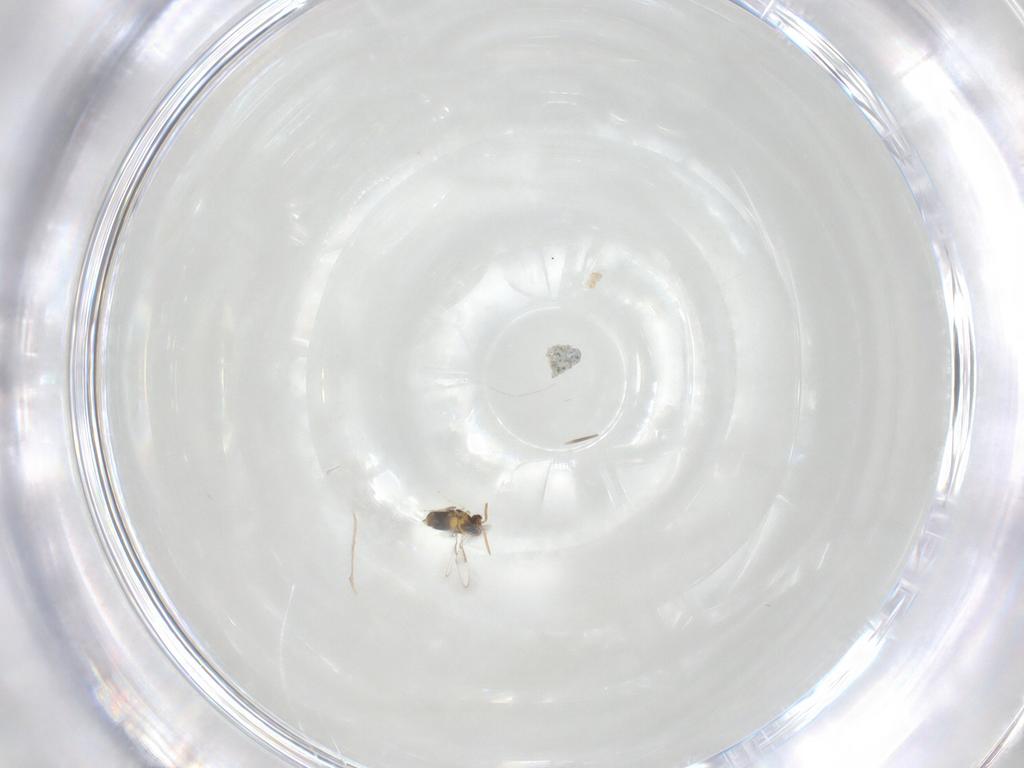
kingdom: Animalia
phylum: Arthropoda
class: Insecta
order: Hymenoptera
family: Aphelinidae
